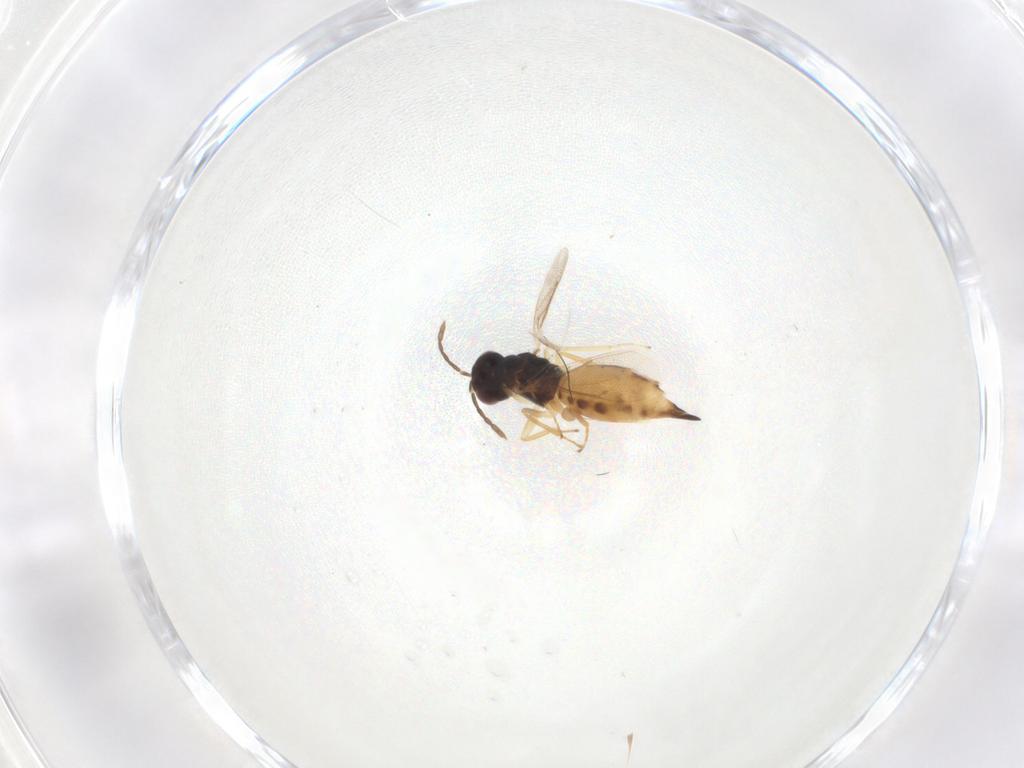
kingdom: Animalia
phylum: Arthropoda
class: Insecta
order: Hymenoptera
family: Eulophidae
